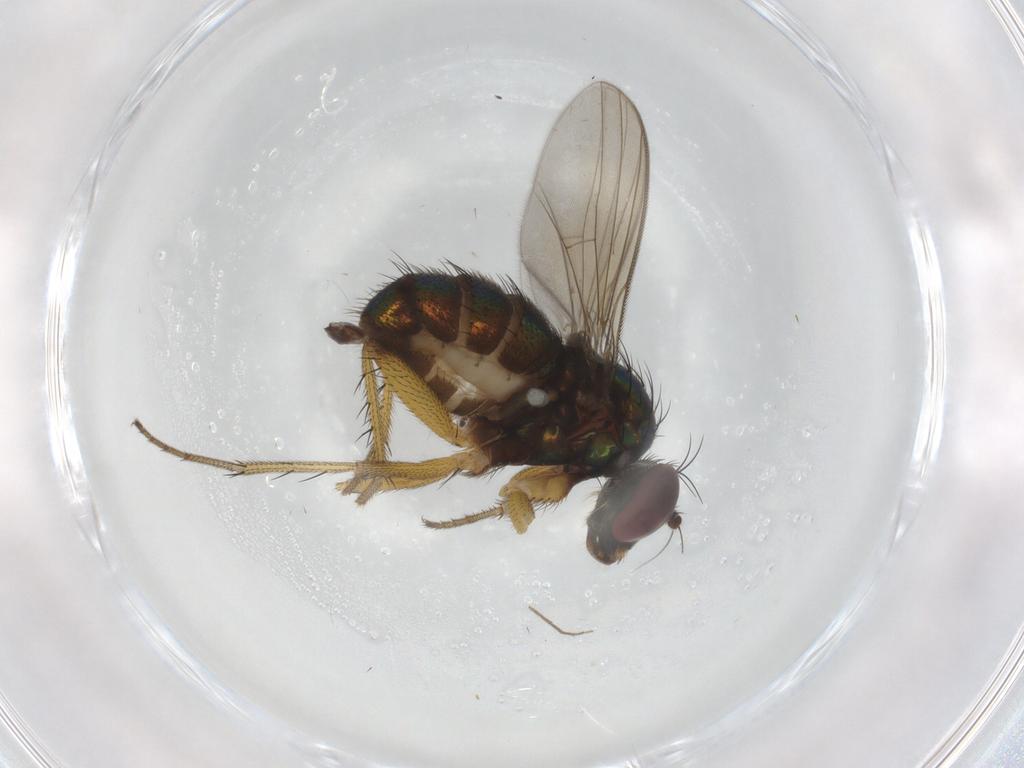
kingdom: Animalia
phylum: Arthropoda
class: Insecta
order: Diptera
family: Dolichopodidae
